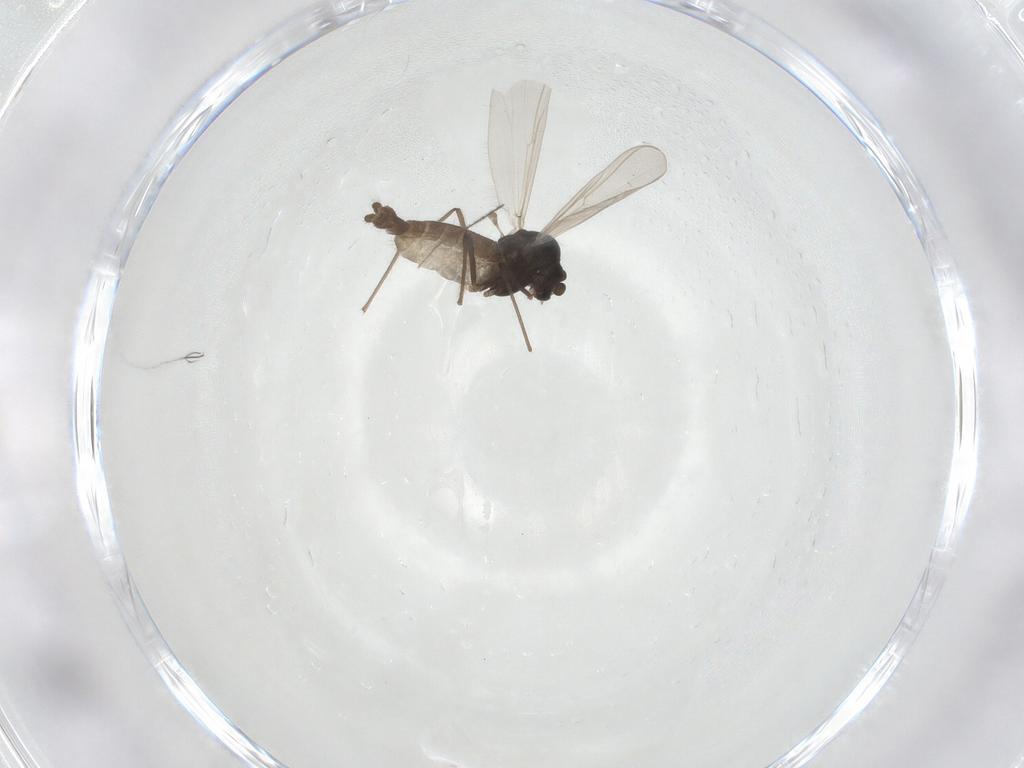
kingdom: Animalia
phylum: Arthropoda
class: Insecta
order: Diptera
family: Chironomidae
